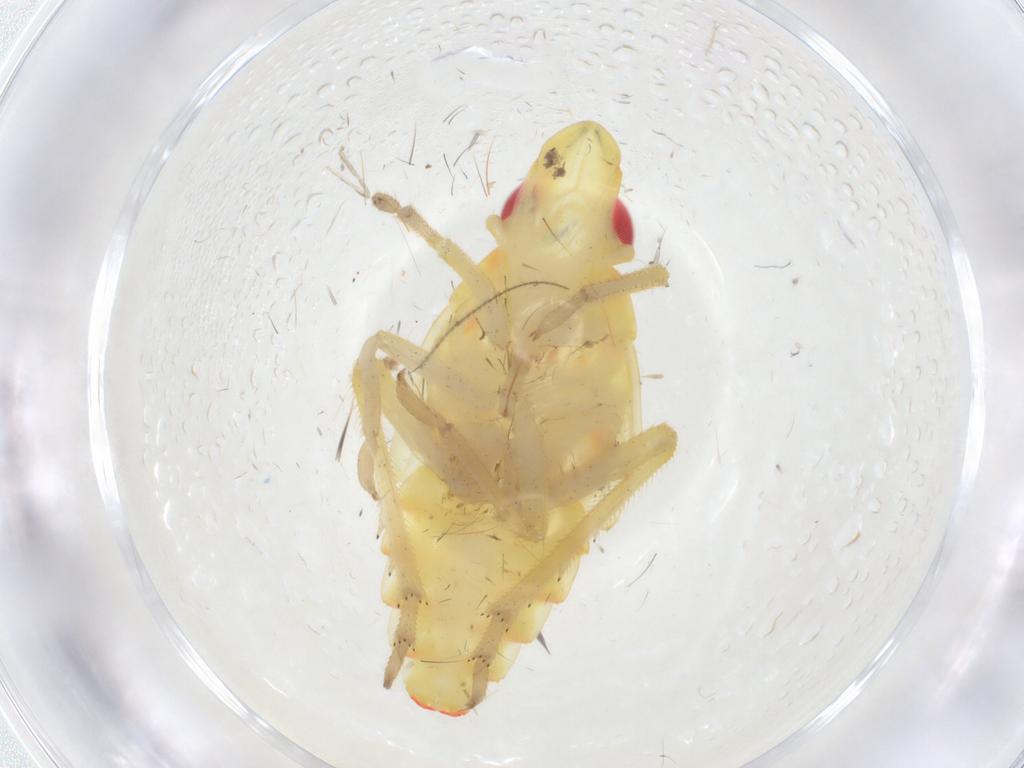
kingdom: Animalia
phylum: Arthropoda
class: Insecta
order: Hemiptera
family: Tropiduchidae
